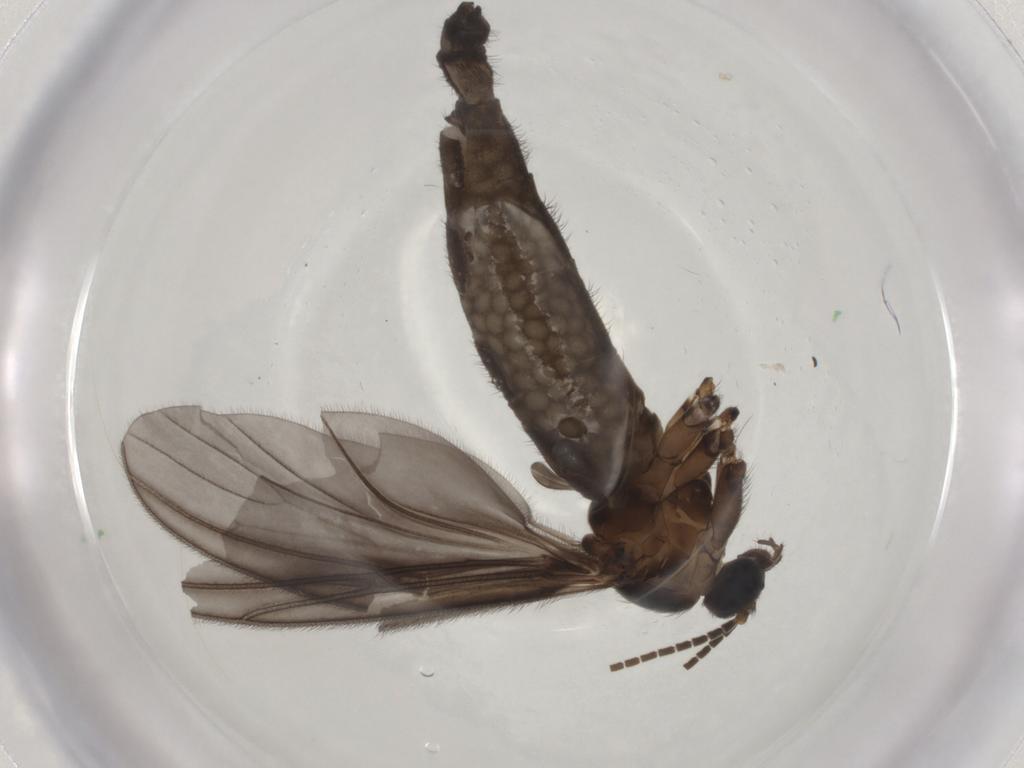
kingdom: Animalia
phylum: Arthropoda
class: Insecta
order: Diptera
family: Sciaridae
